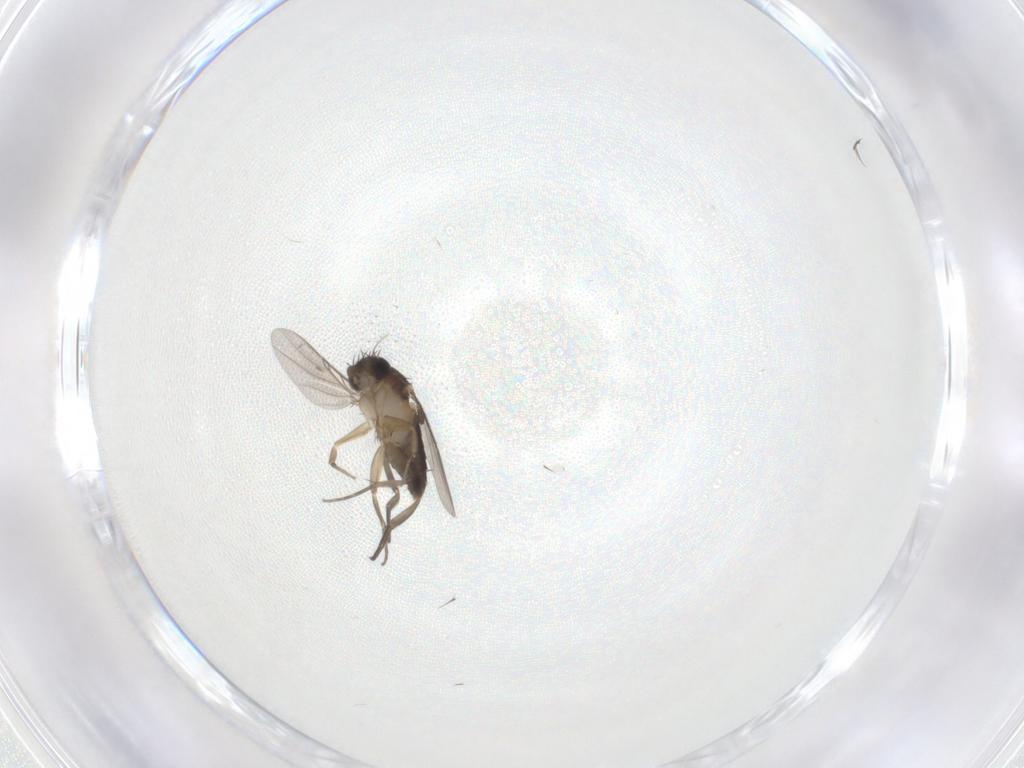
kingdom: Animalia
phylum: Arthropoda
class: Insecta
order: Diptera
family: Phoridae
